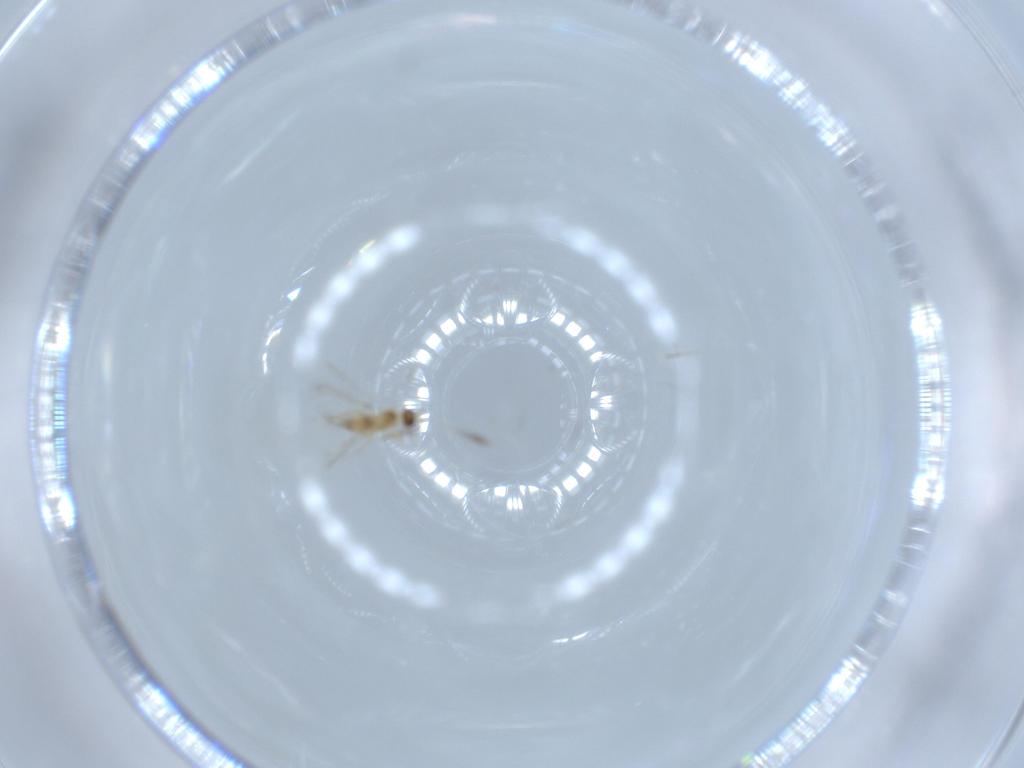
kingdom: Animalia
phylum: Arthropoda
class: Insecta
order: Hymenoptera
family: Mymaridae
